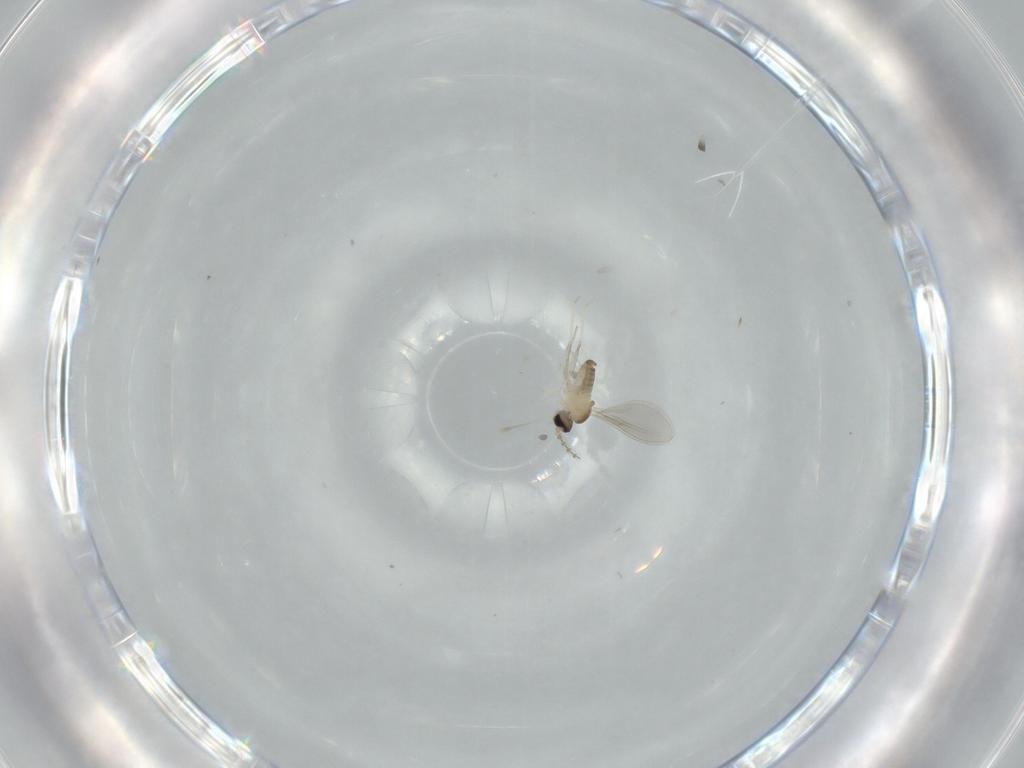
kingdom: Animalia
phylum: Arthropoda
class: Insecta
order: Diptera
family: Cecidomyiidae
